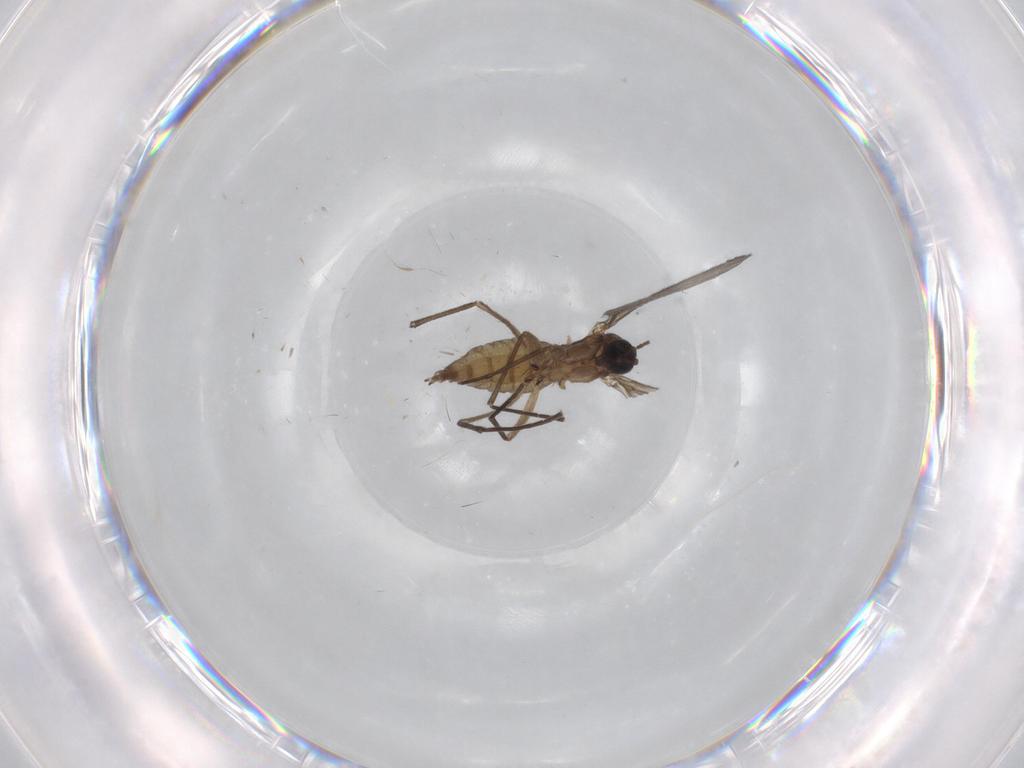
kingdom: Animalia
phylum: Arthropoda
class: Insecta
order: Diptera
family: Sciaridae
